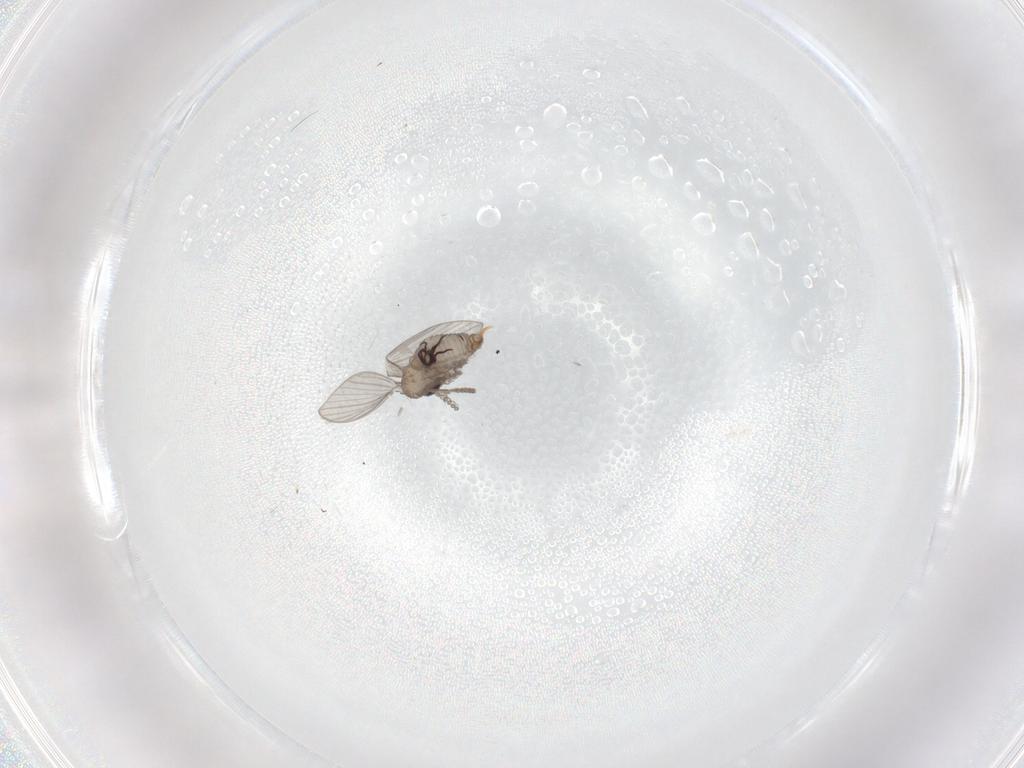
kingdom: Animalia
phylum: Arthropoda
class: Insecta
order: Diptera
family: Psychodidae
